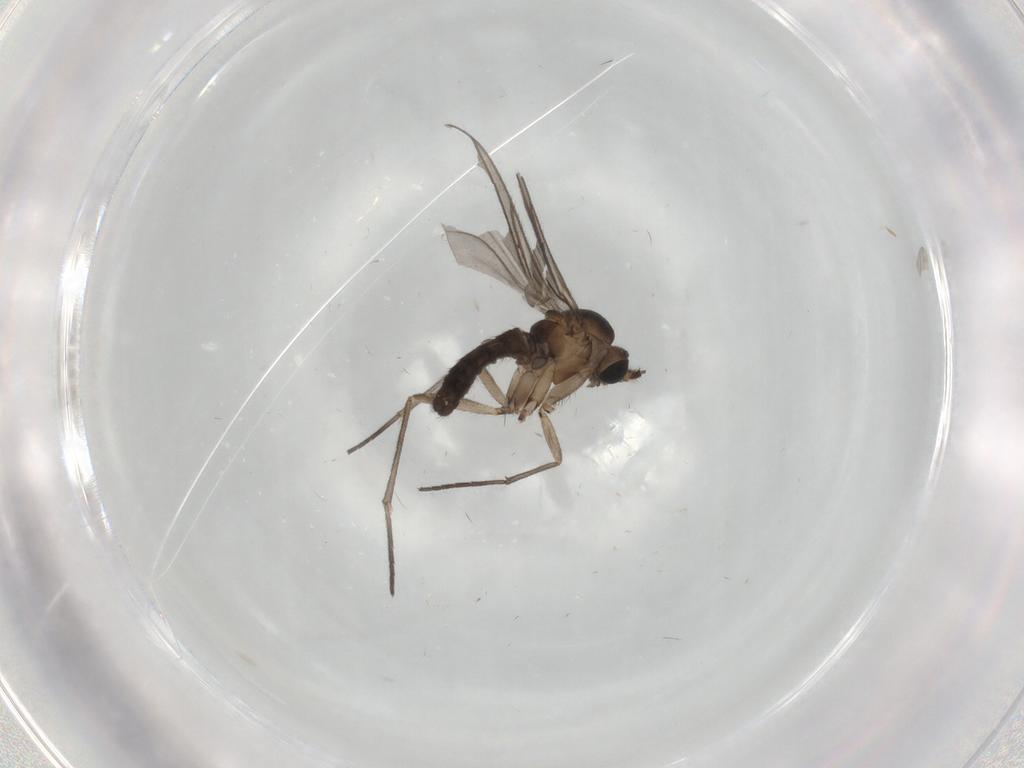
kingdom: Animalia
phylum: Arthropoda
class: Insecta
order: Diptera
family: Sciaridae
